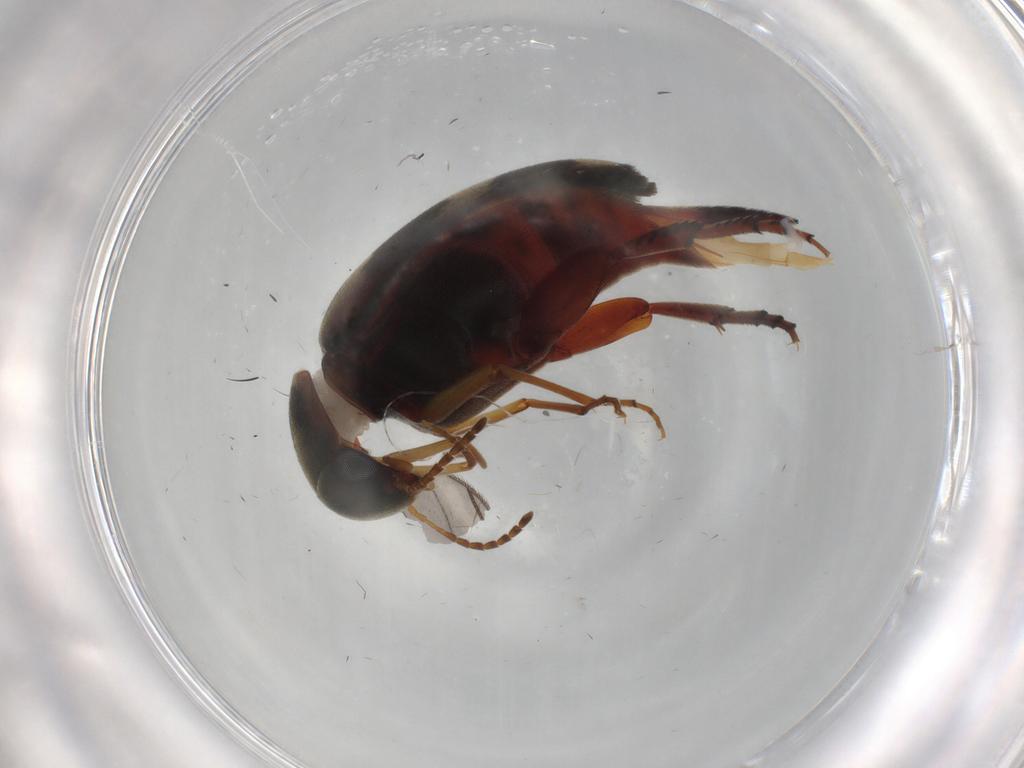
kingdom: Animalia
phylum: Arthropoda
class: Insecta
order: Coleoptera
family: Mordellidae
